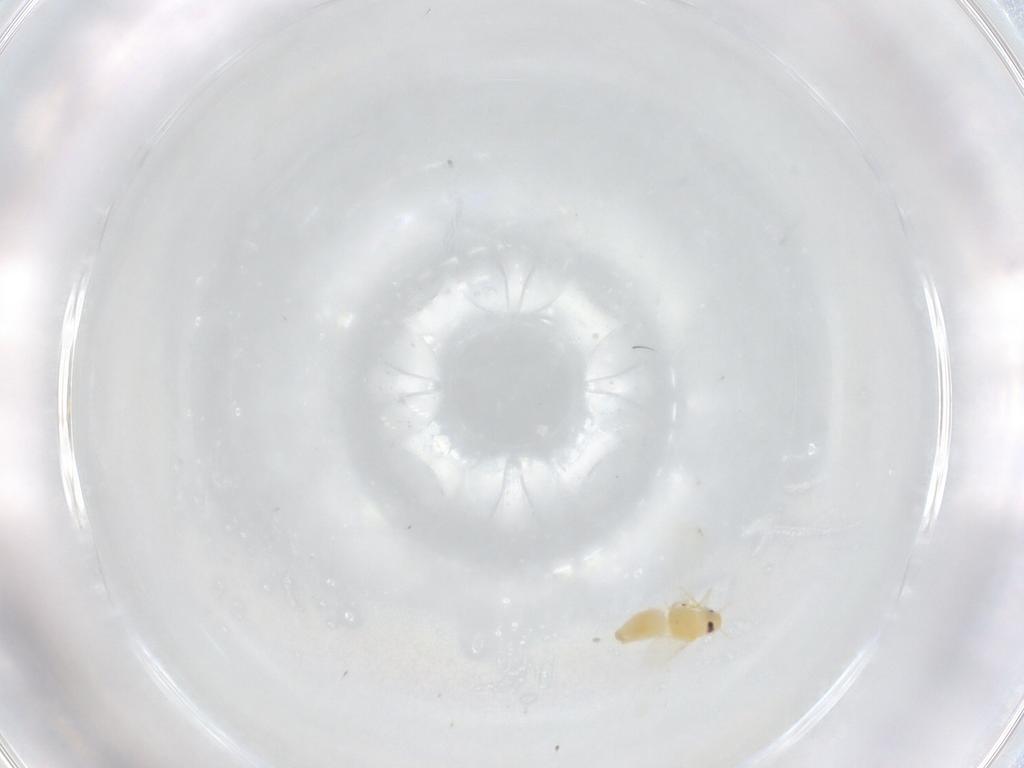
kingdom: Animalia
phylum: Arthropoda
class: Insecta
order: Hemiptera
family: Aleyrodidae
